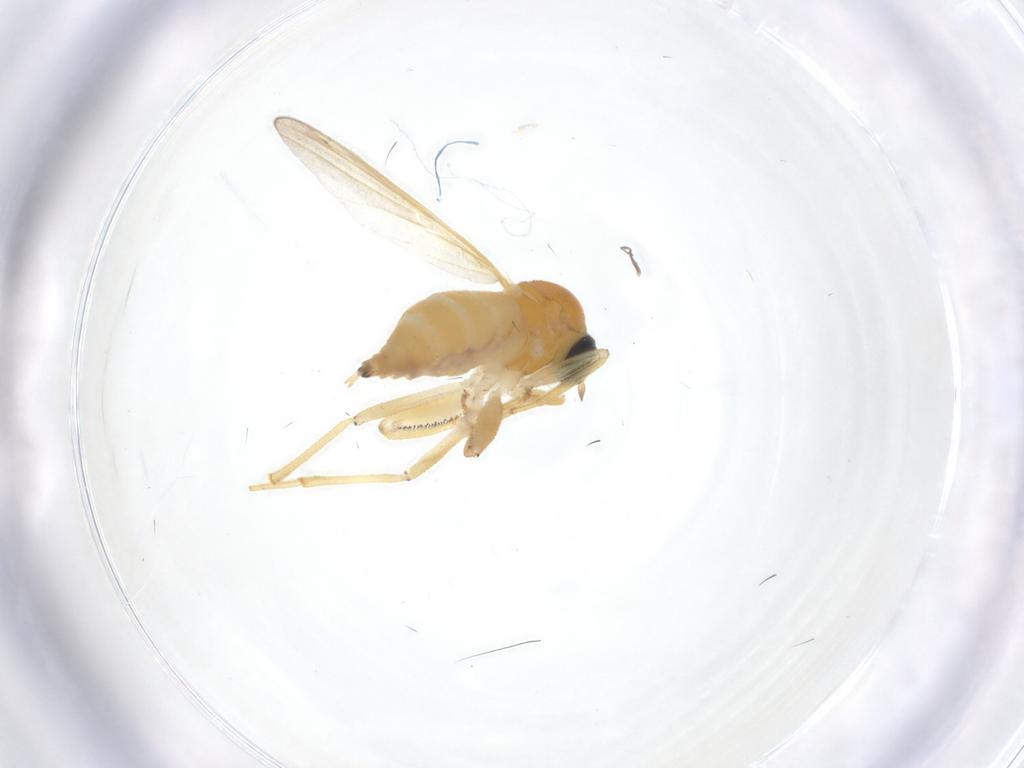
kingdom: Animalia
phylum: Arthropoda
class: Insecta
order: Diptera
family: Hybotidae
